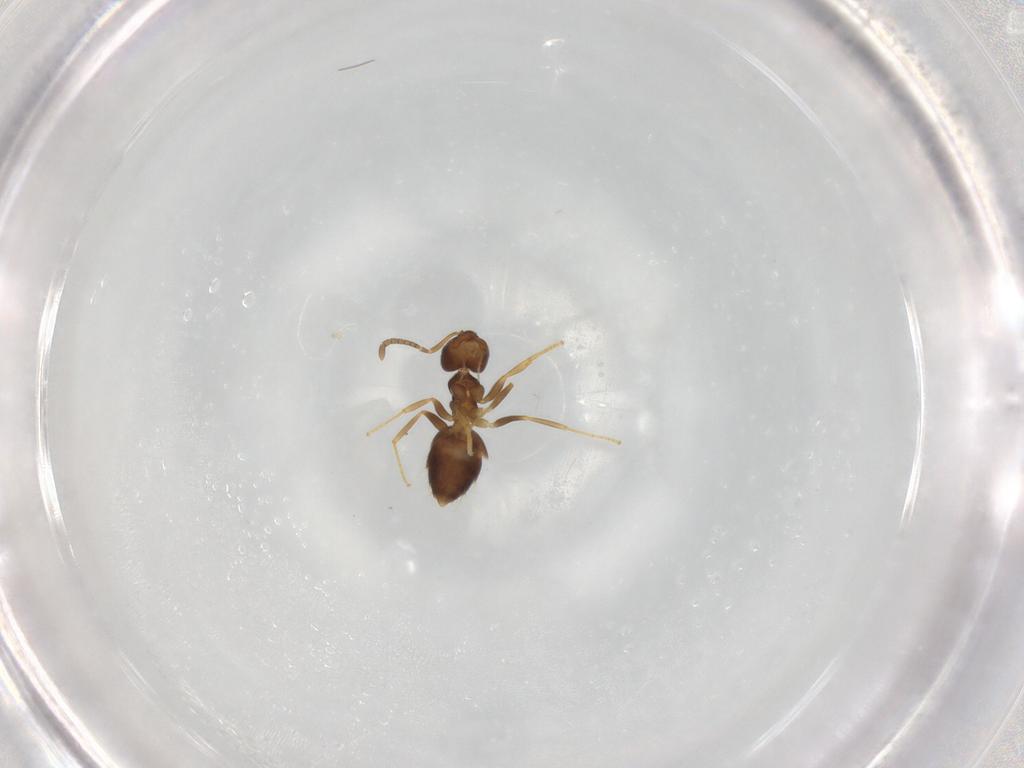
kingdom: Animalia
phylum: Arthropoda
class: Insecta
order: Hymenoptera
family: Formicidae
